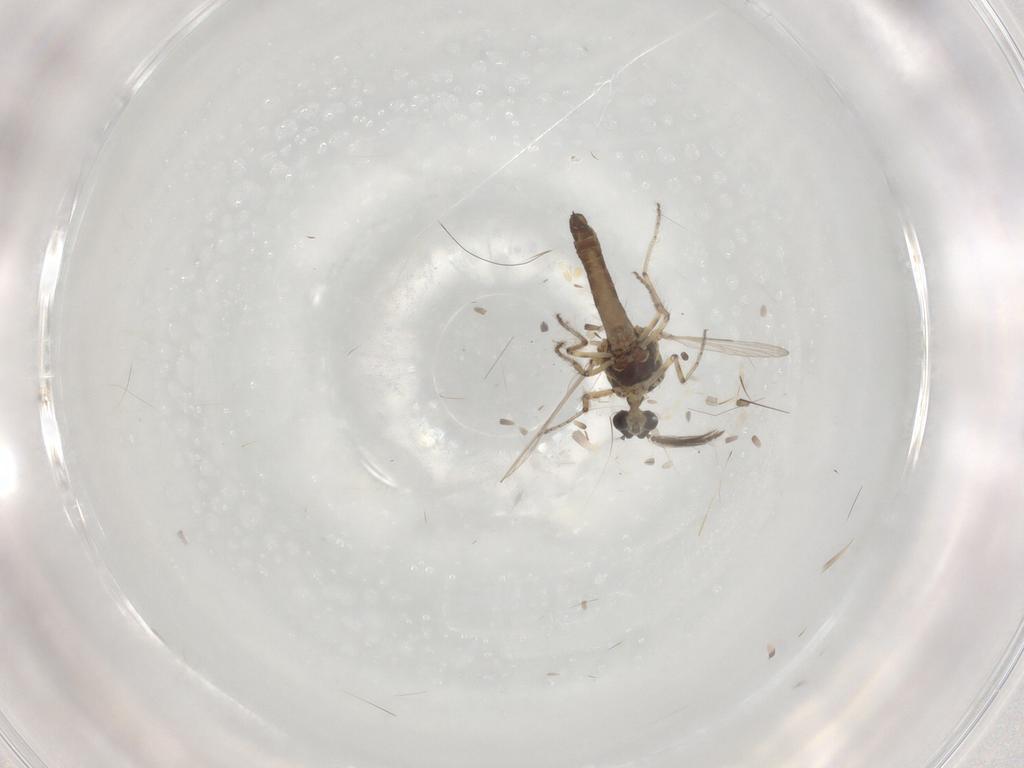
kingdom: Animalia
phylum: Arthropoda
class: Insecta
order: Diptera
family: Ceratopogonidae
